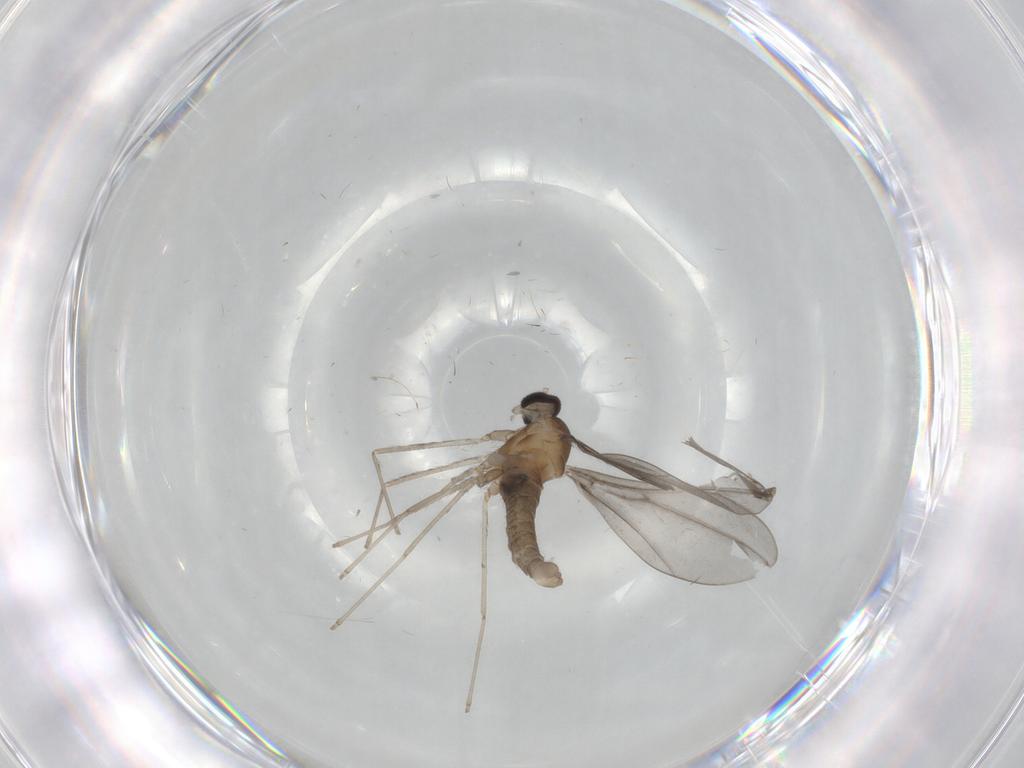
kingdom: Animalia
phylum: Arthropoda
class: Insecta
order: Diptera
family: Cecidomyiidae
